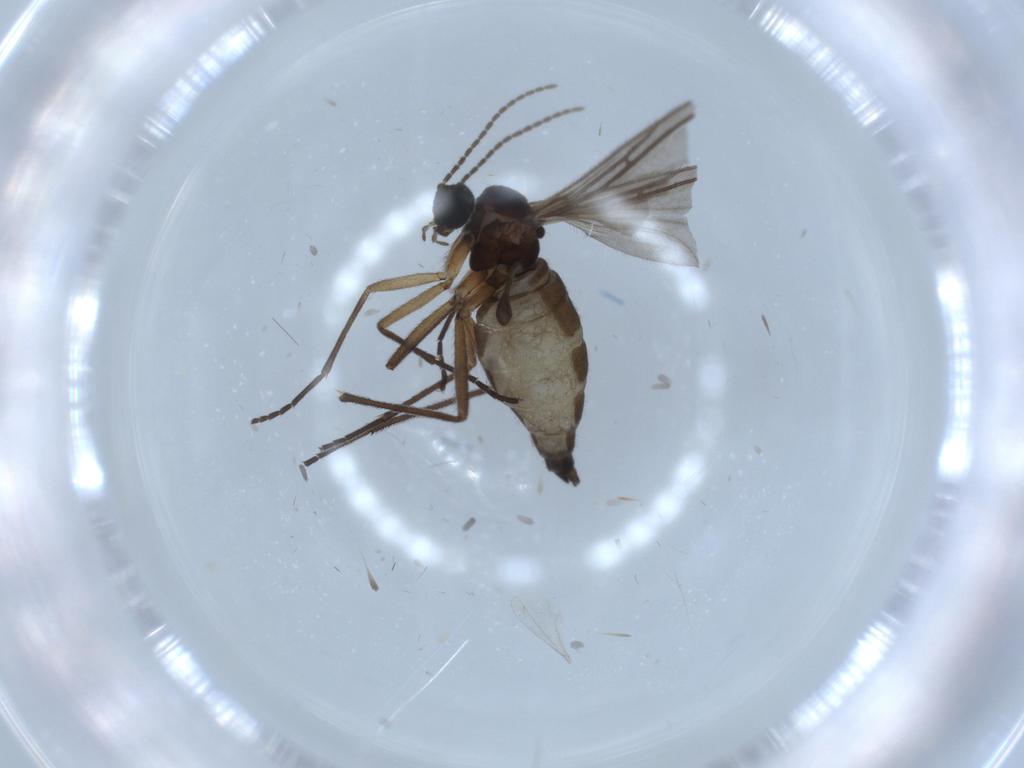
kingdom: Animalia
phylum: Arthropoda
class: Insecta
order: Diptera
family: Sciaridae
